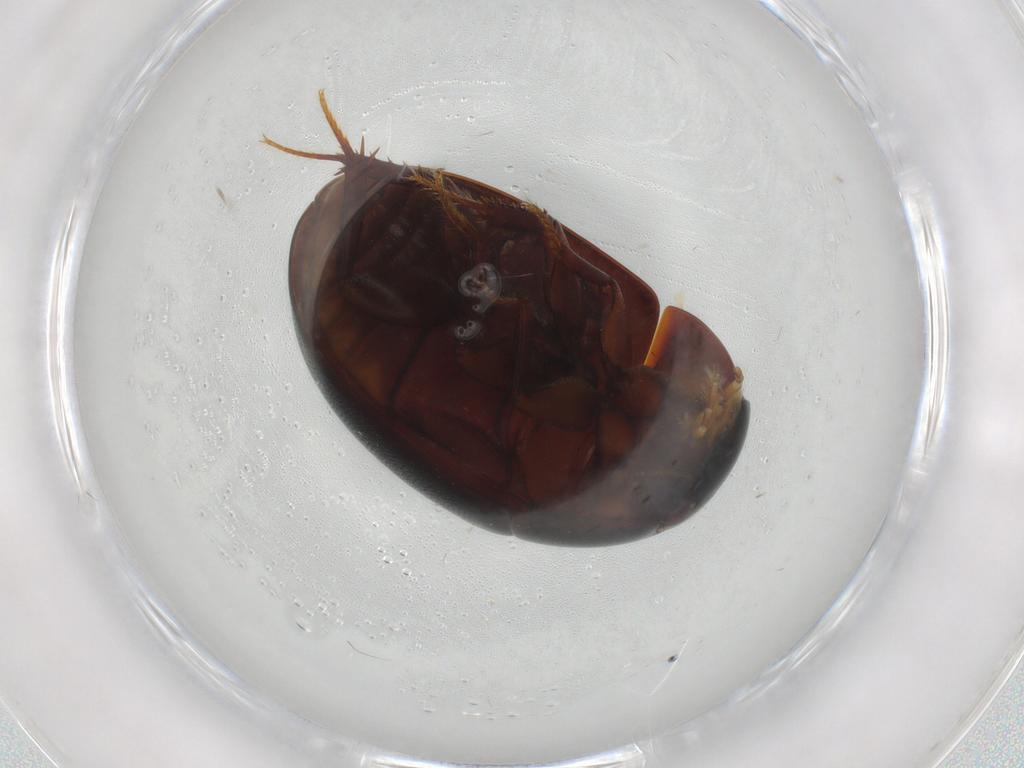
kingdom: Animalia
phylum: Arthropoda
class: Insecta
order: Coleoptera
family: Hydrophilidae
